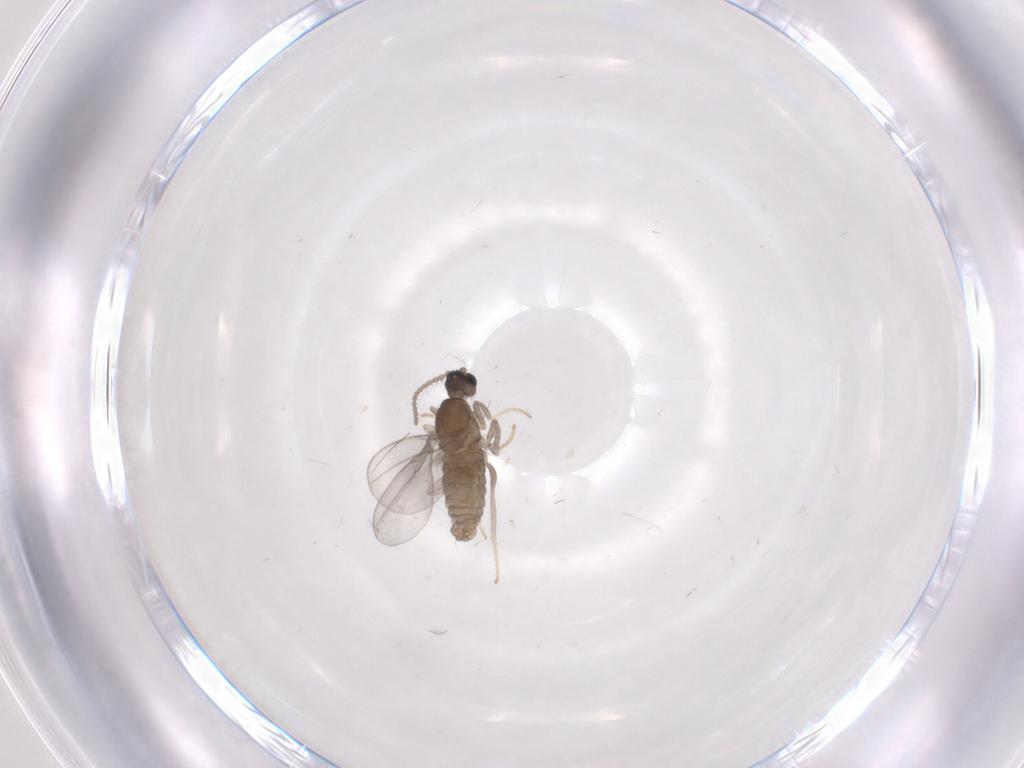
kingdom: Animalia
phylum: Arthropoda
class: Insecta
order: Diptera
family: Cecidomyiidae
